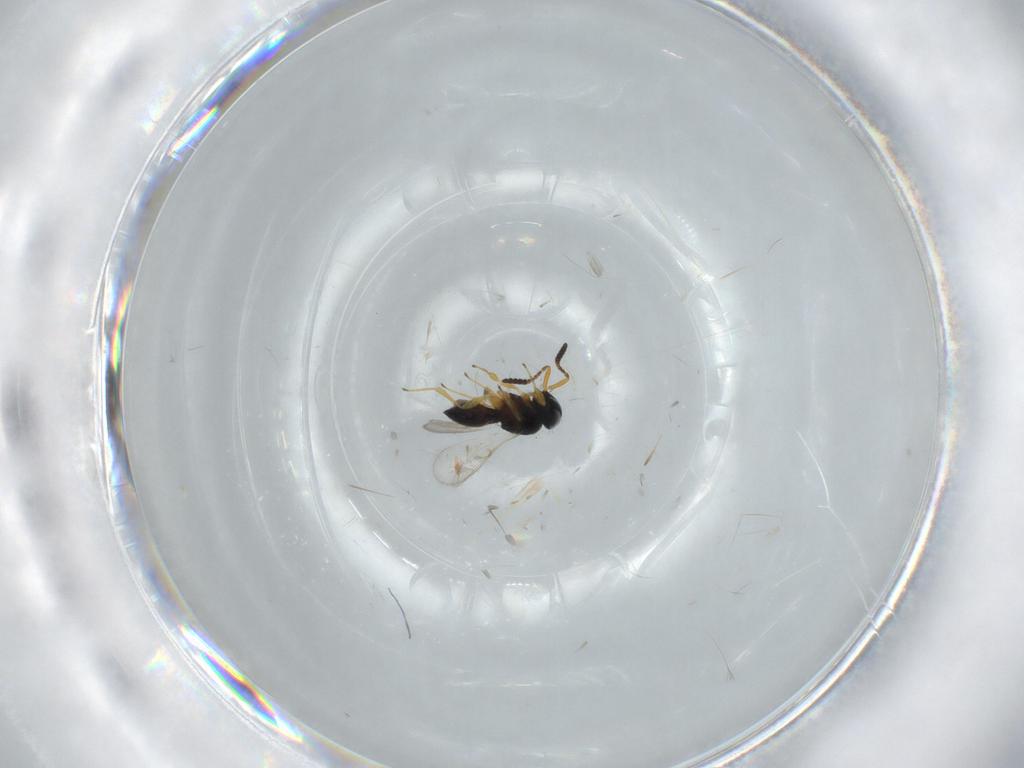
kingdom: Animalia
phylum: Arthropoda
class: Insecta
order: Hymenoptera
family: Scelionidae
